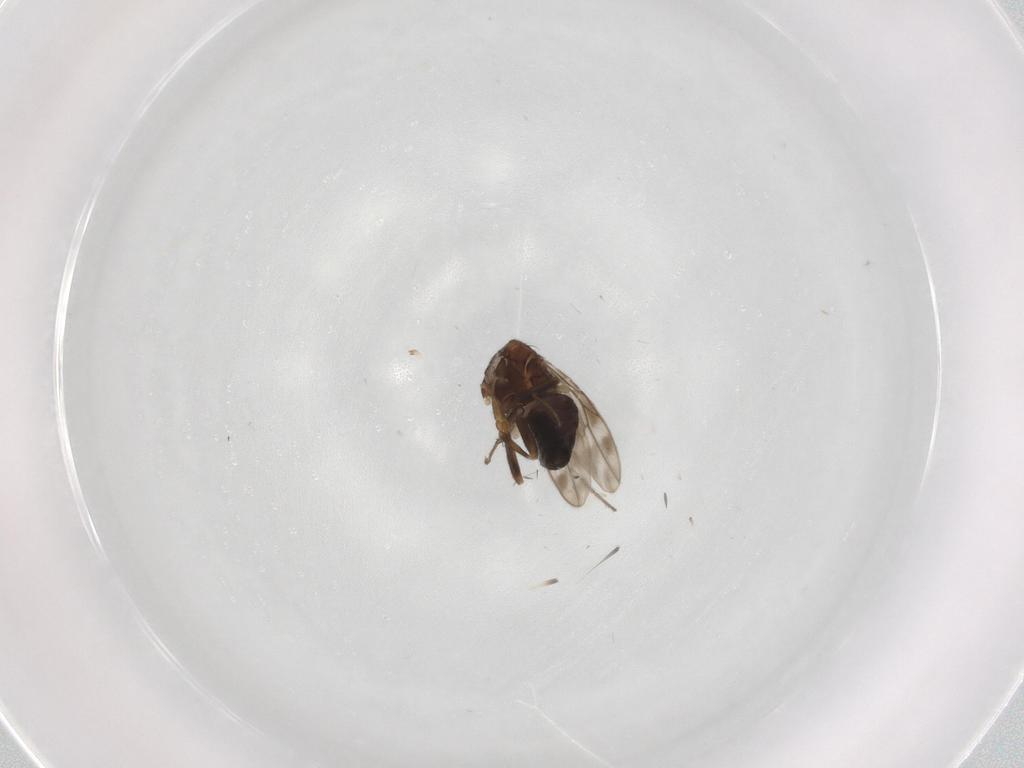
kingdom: Animalia
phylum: Arthropoda
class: Insecta
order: Diptera
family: Sphaeroceridae
